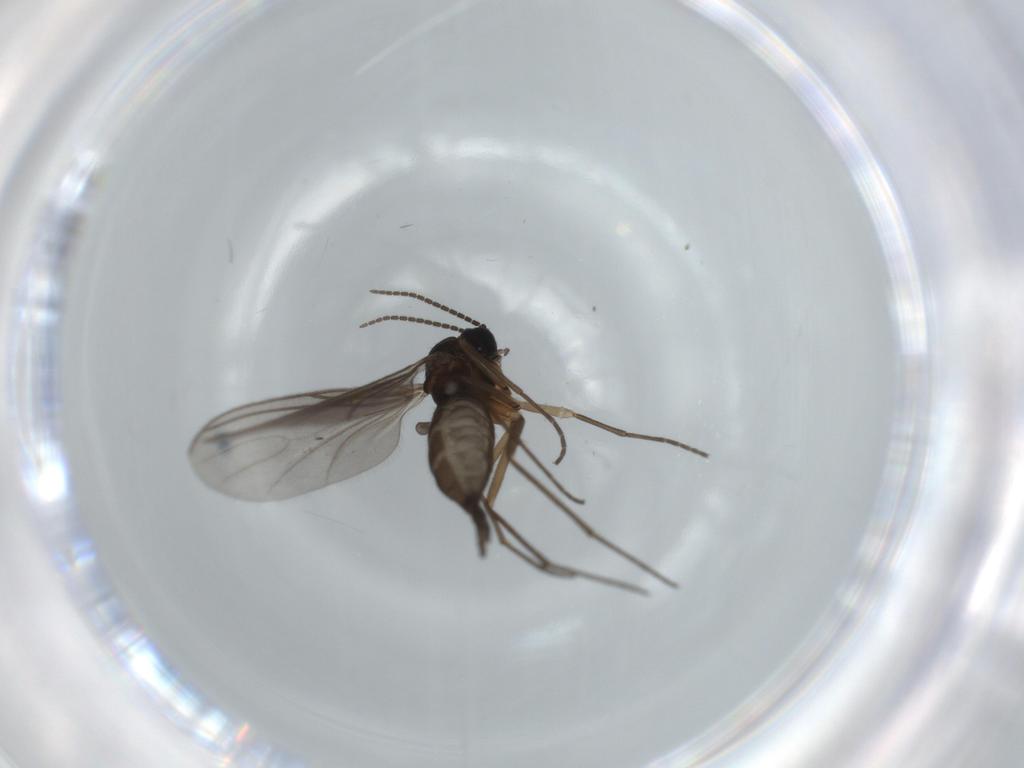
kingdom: Animalia
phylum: Arthropoda
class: Insecta
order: Diptera
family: Sciaridae
